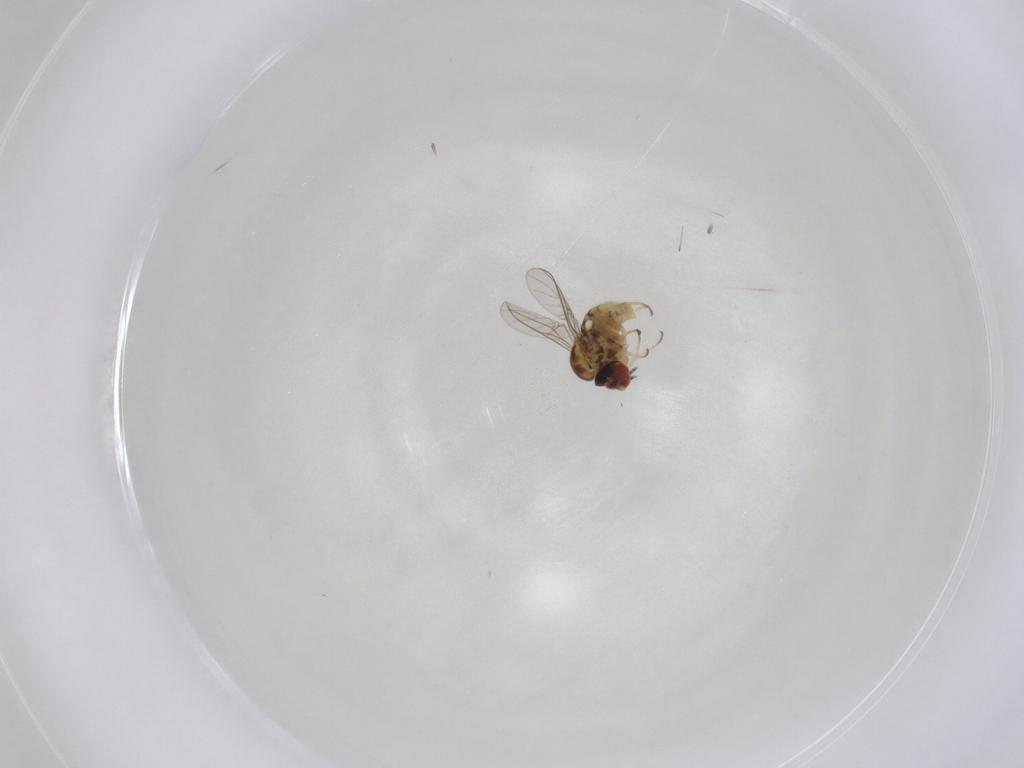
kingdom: Animalia
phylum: Arthropoda
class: Insecta
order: Diptera
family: Bombyliidae
